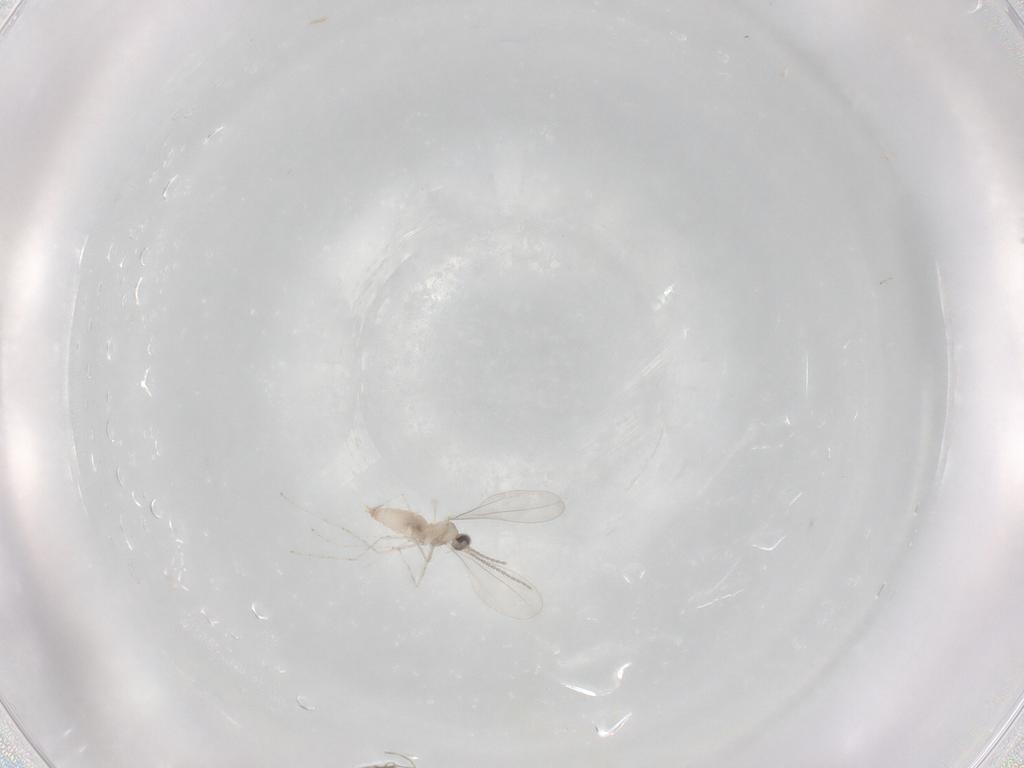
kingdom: Animalia
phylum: Arthropoda
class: Insecta
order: Diptera
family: Cecidomyiidae
